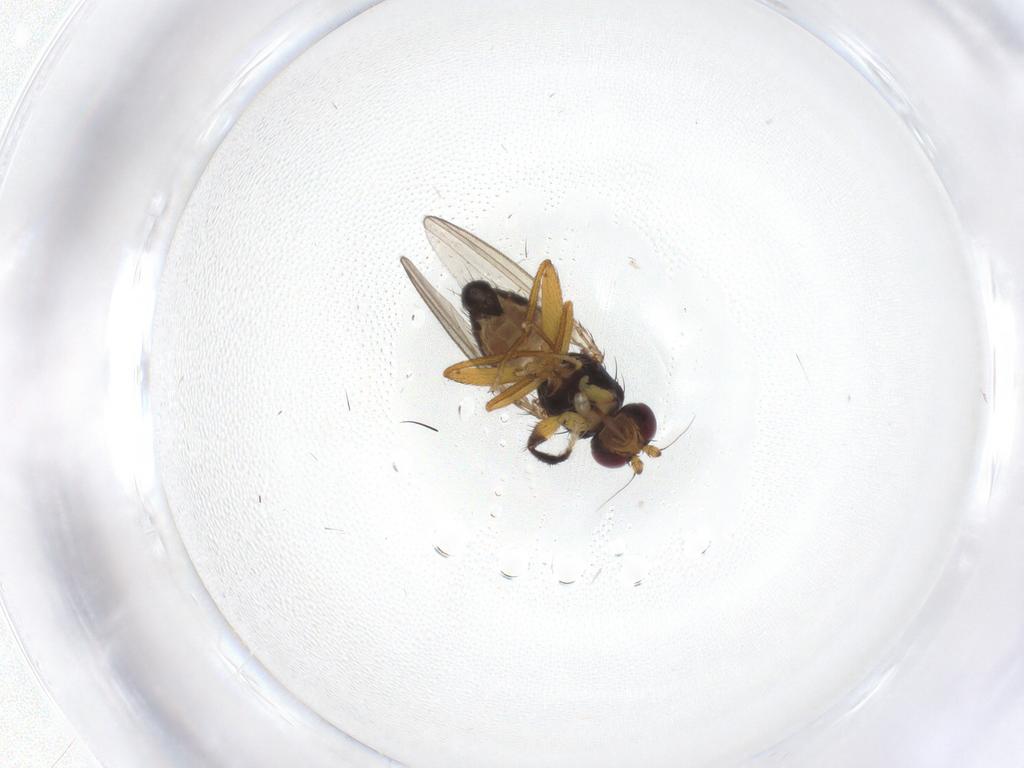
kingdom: Animalia
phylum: Arthropoda
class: Insecta
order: Diptera
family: Cypselosomatidae
